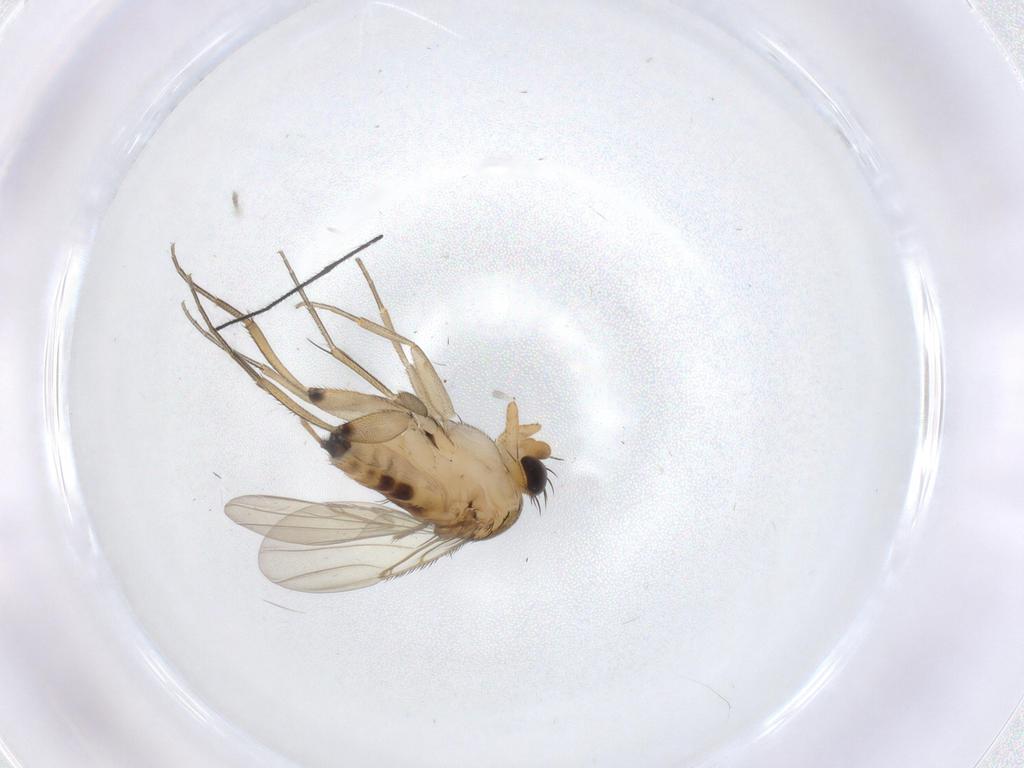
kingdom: Animalia
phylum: Arthropoda
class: Insecta
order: Diptera
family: Phoridae
